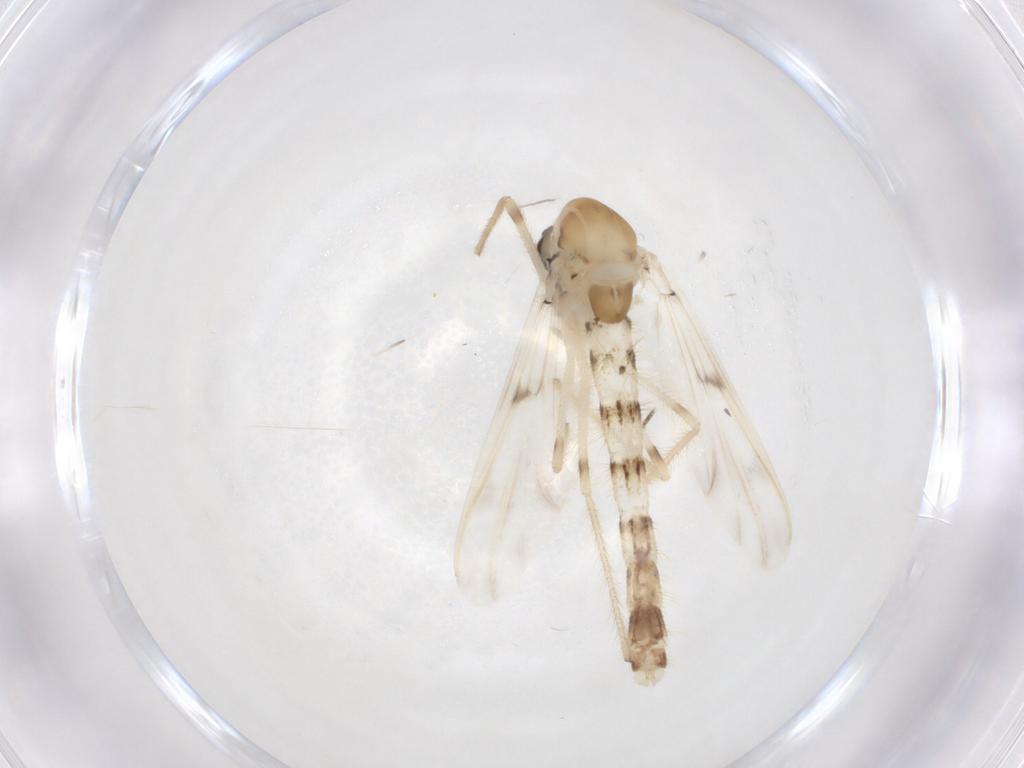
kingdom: Animalia
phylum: Arthropoda
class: Insecta
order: Diptera
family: Chironomidae
